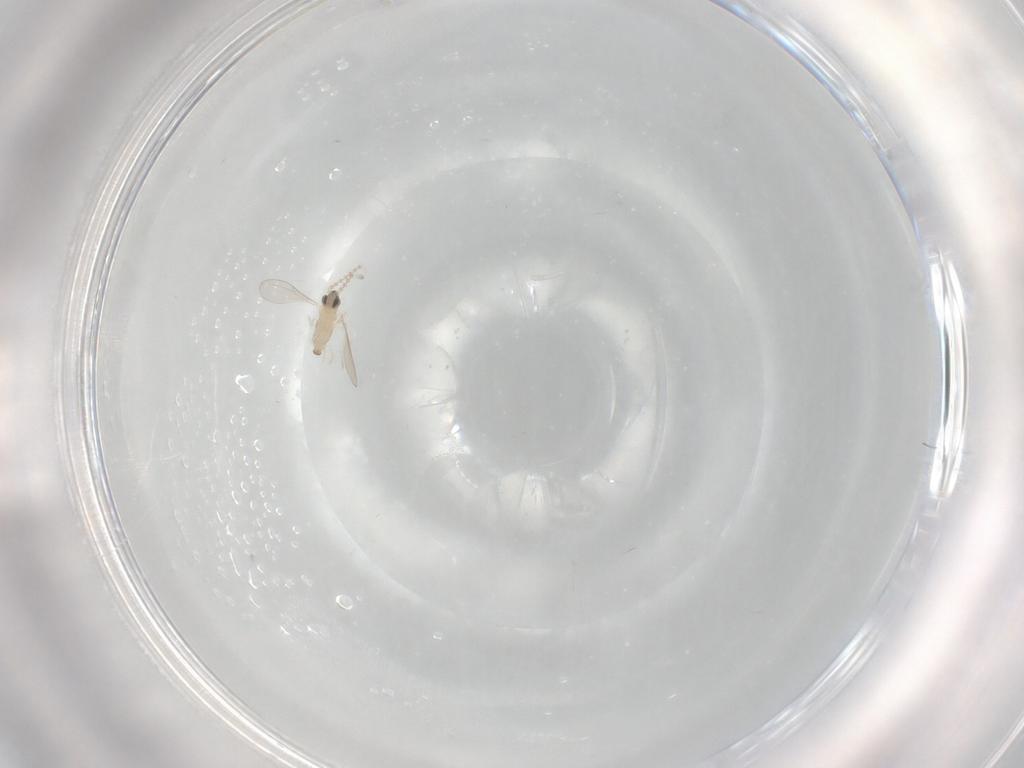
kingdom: Animalia
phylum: Arthropoda
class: Insecta
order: Diptera
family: Cecidomyiidae
